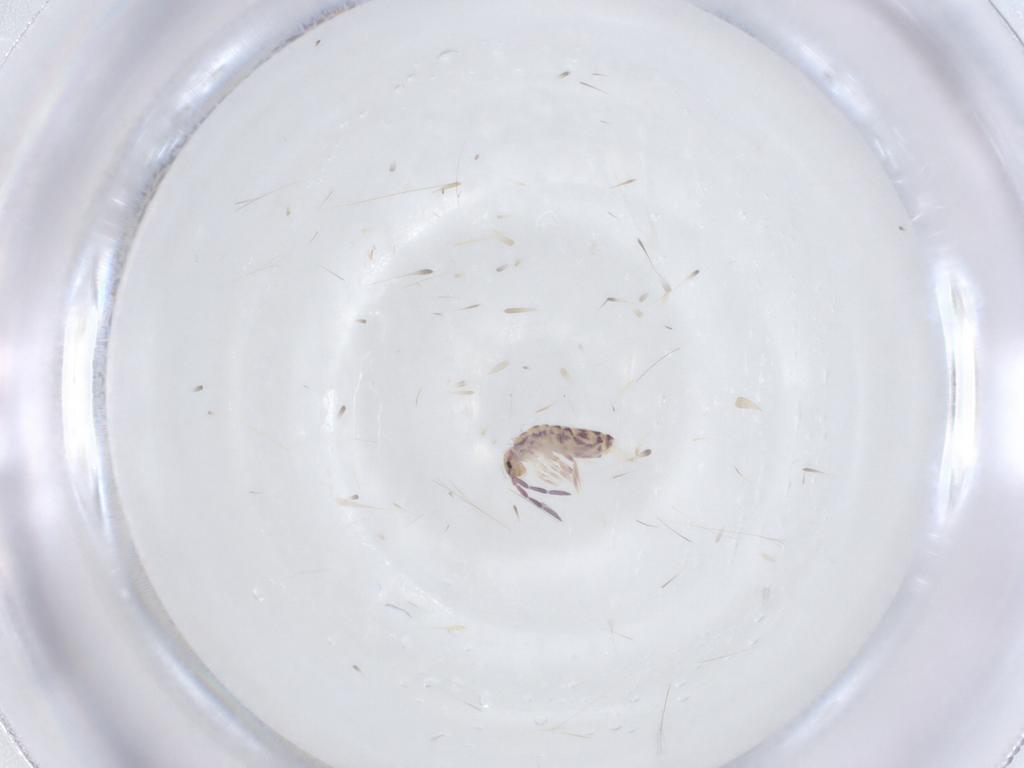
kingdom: Animalia
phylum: Arthropoda
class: Collembola
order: Entomobryomorpha
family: Entomobryidae
